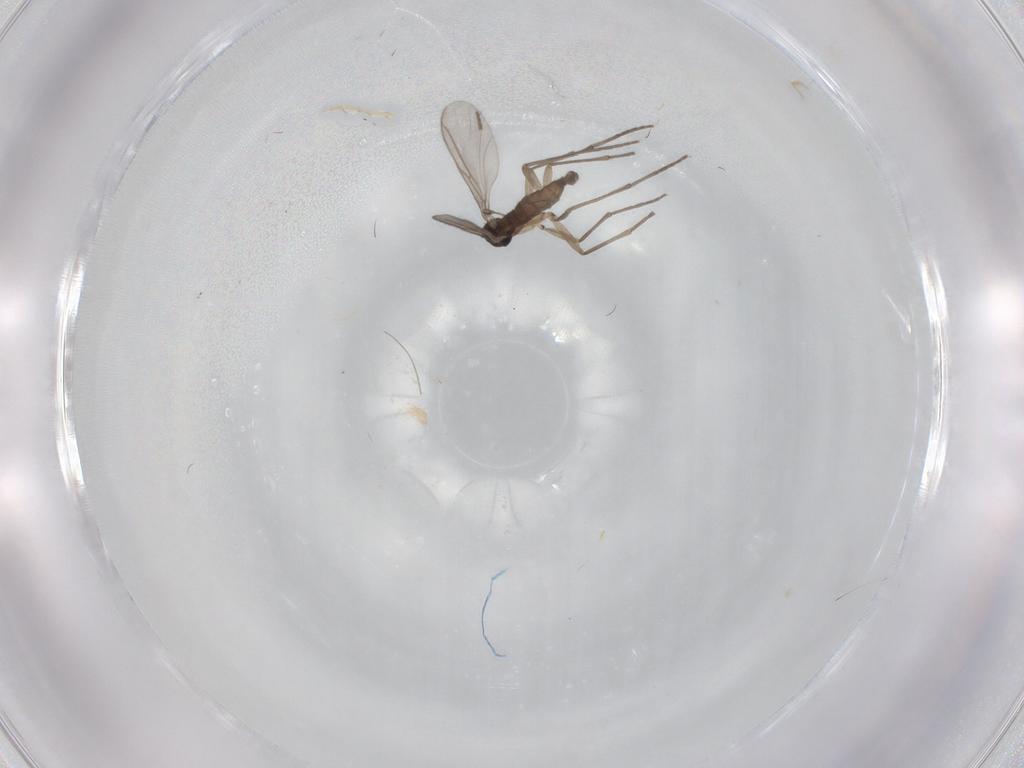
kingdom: Animalia
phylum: Arthropoda
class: Insecta
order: Diptera
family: Sciaridae
